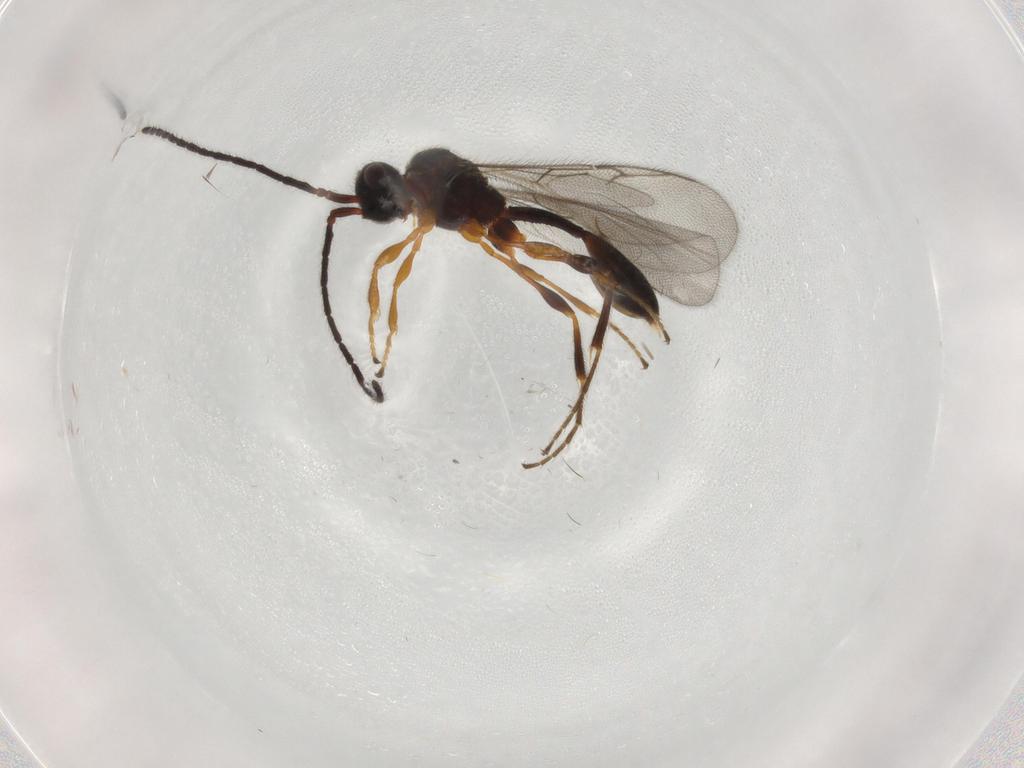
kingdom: Animalia
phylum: Arthropoda
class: Insecta
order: Hymenoptera
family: Diapriidae
